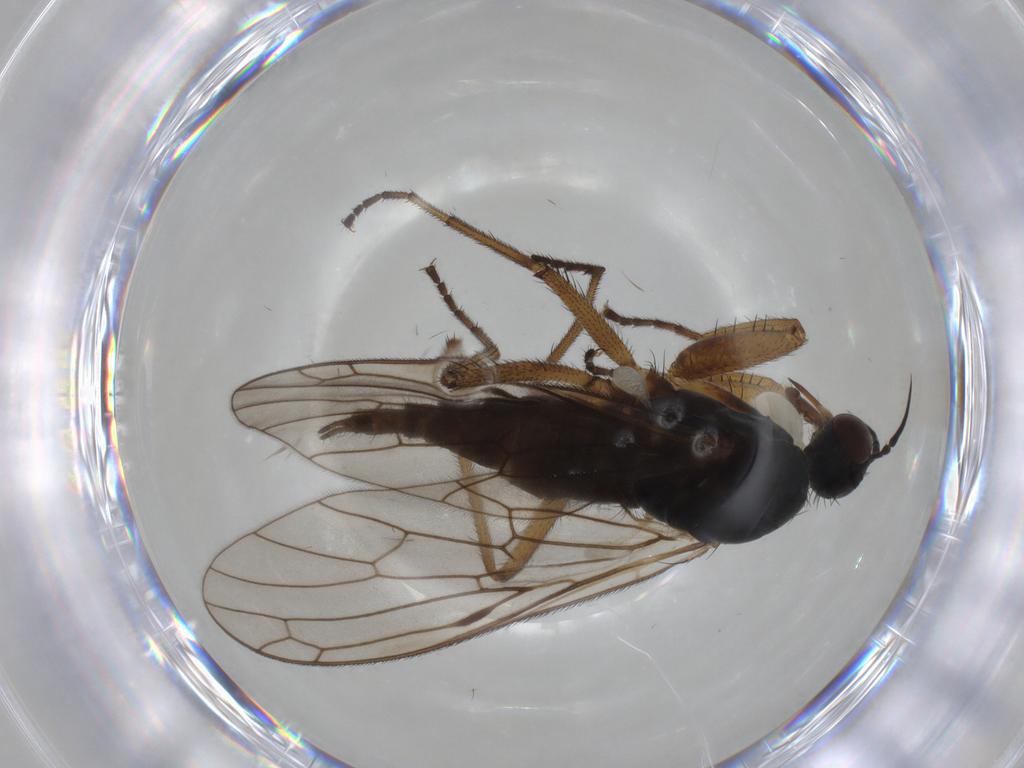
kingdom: Animalia
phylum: Arthropoda
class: Insecta
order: Diptera
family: Empididae
